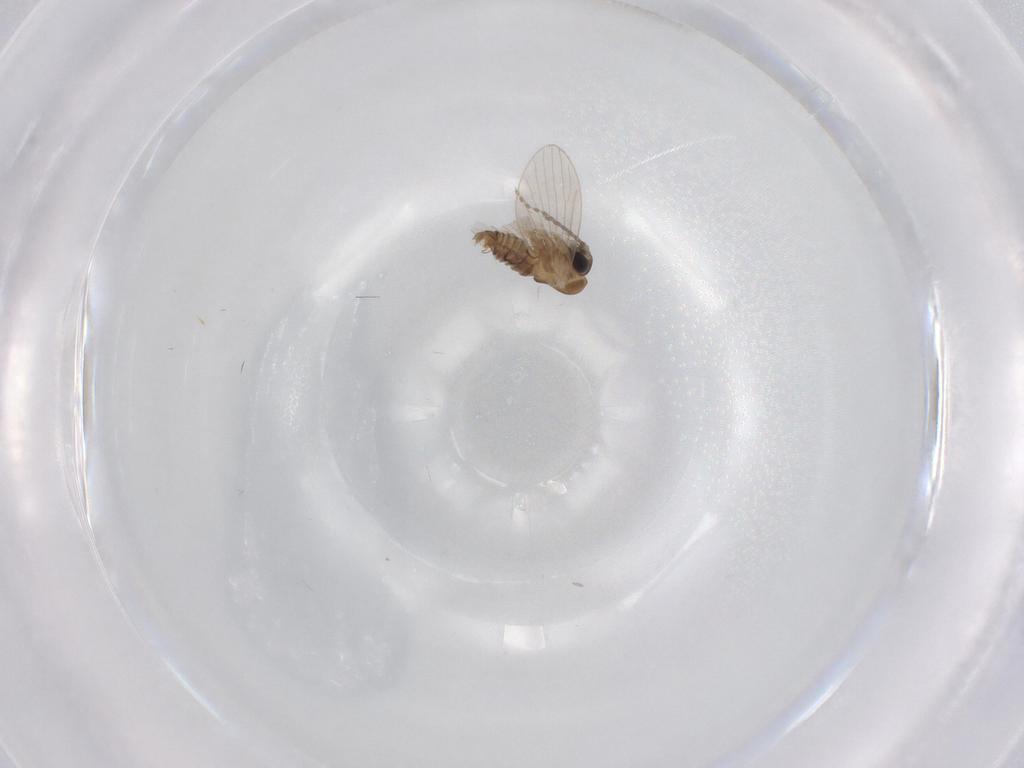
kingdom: Animalia
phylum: Arthropoda
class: Insecta
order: Diptera
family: Psychodidae
